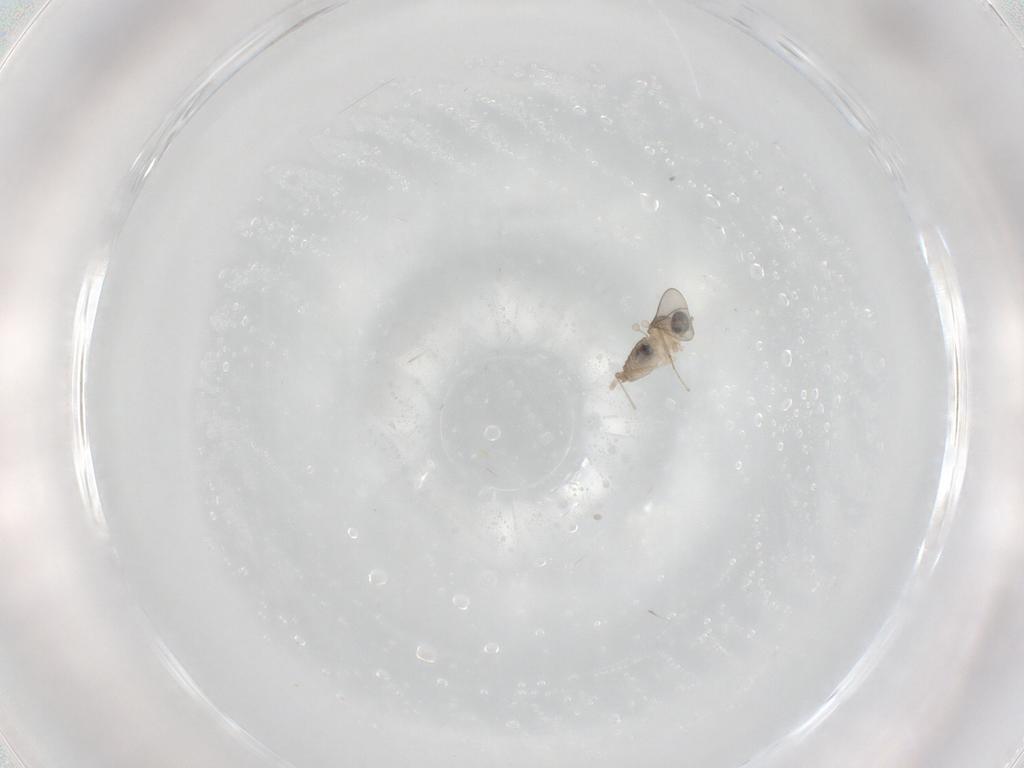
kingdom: Animalia
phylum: Arthropoda
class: Insecta
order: Diptera
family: Cecidomyiidae
